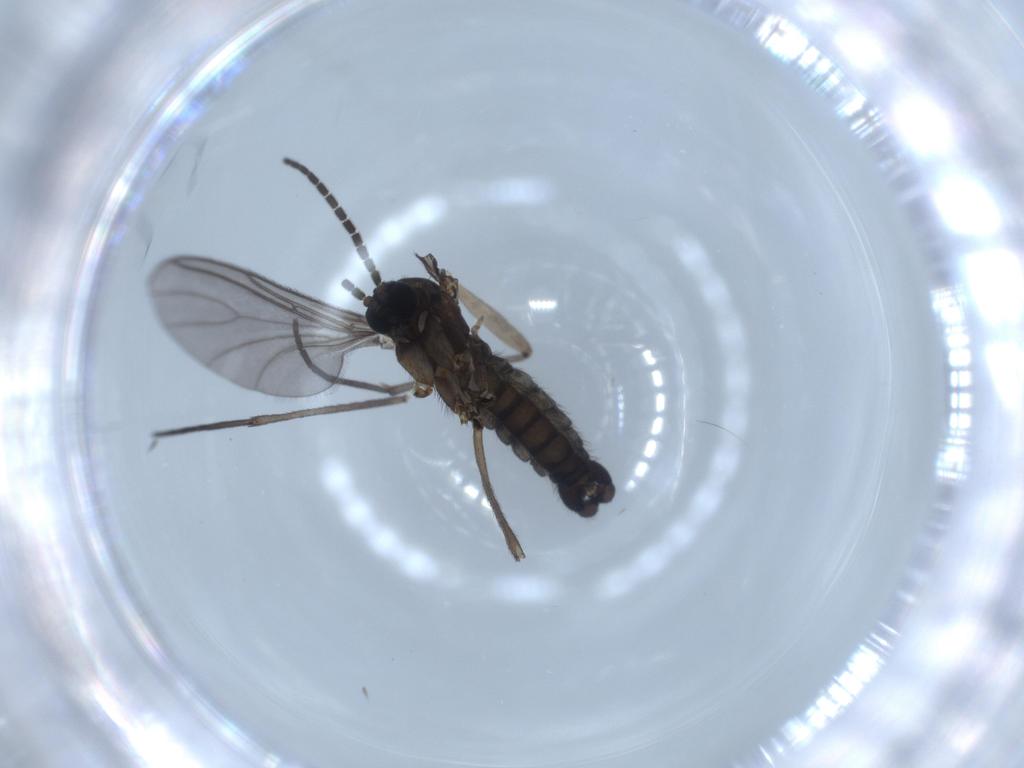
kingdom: Animalia
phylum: Arthropoda
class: Insecta
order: Diptera
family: Sciaridae
